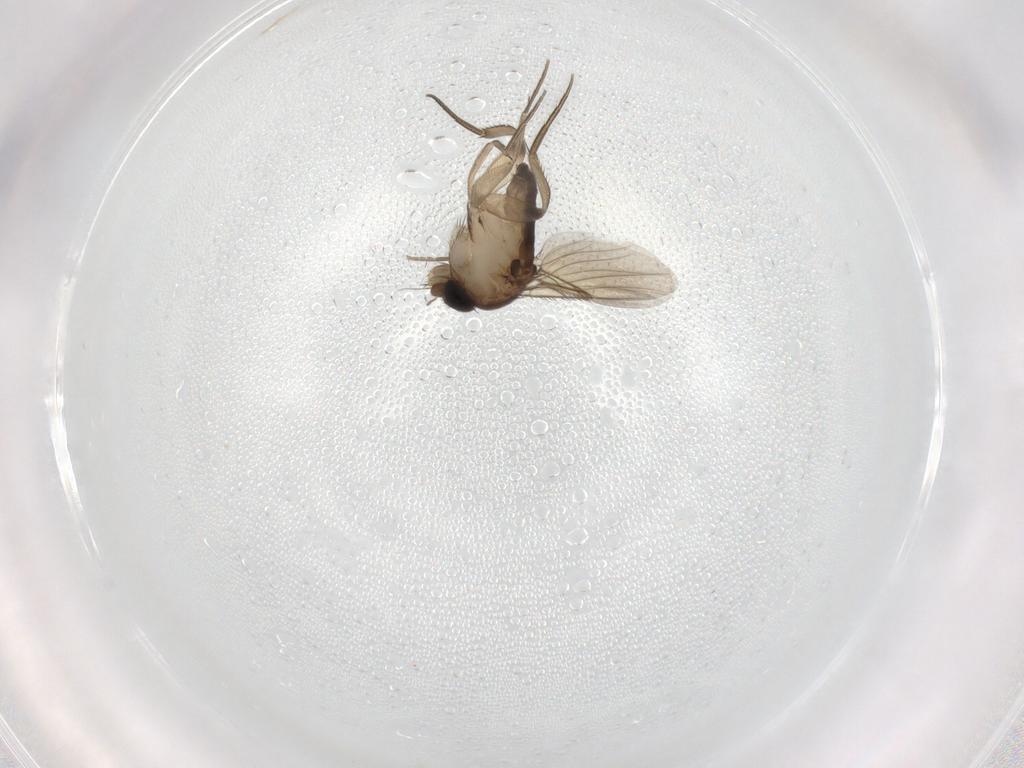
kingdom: Animalia
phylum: Arthropoda
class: Insecta
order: Diptera
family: Phoridae
